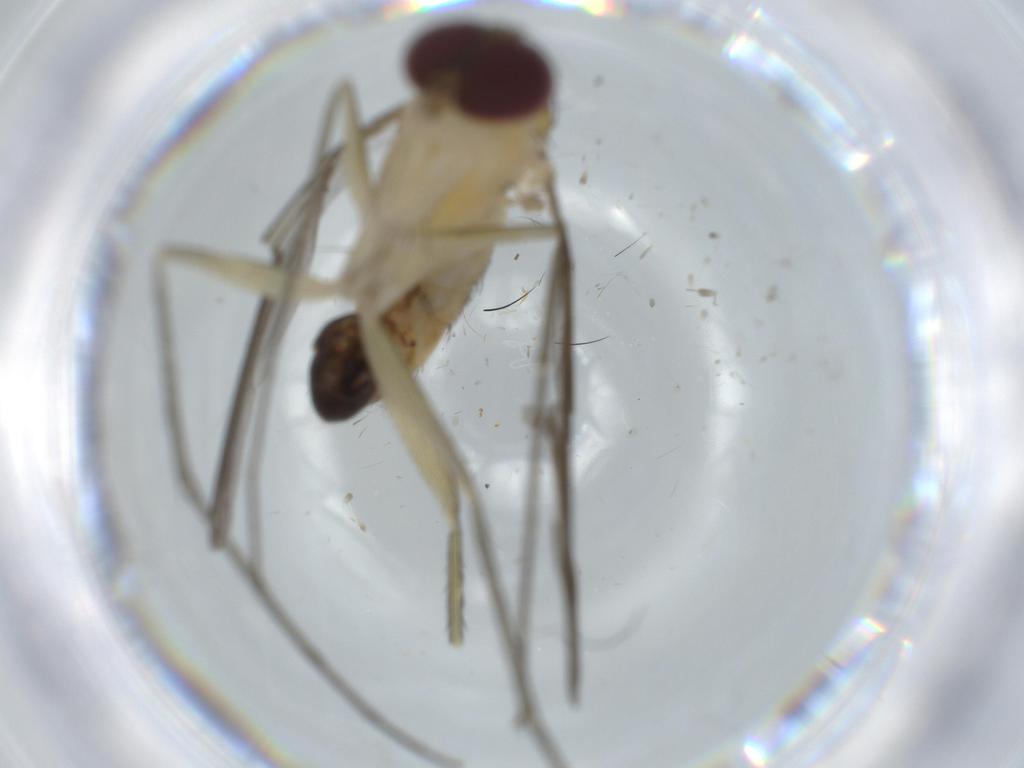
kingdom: Animalia
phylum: Arthropoda
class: Insecta
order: Diptera
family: Dolichopodidae
